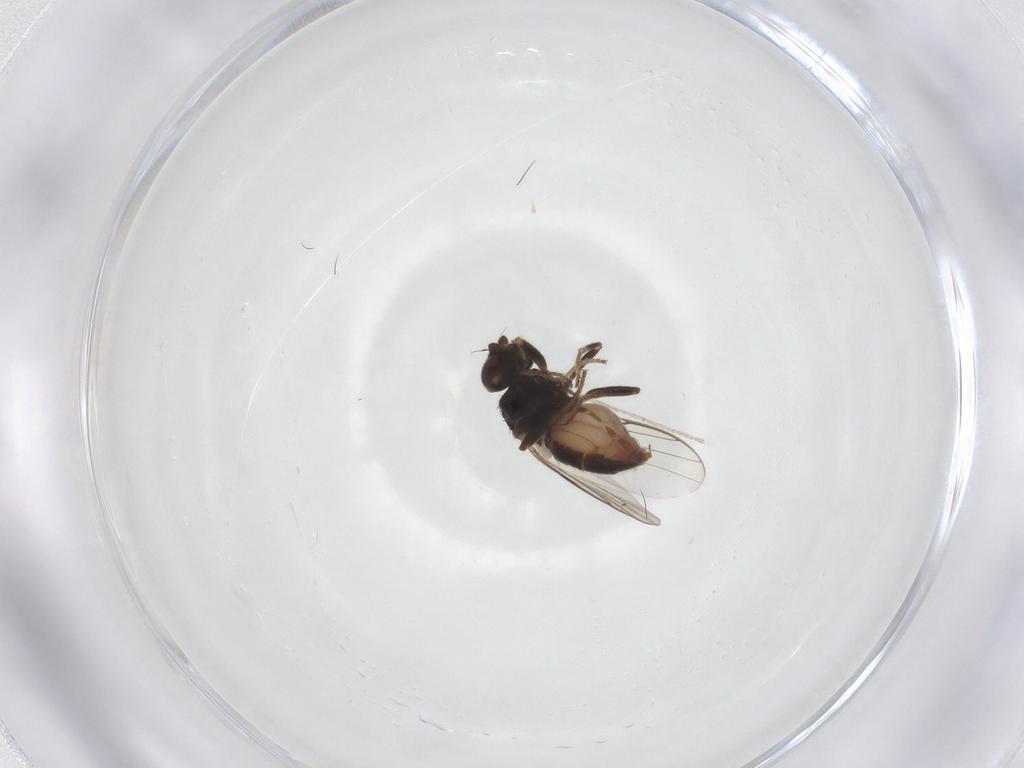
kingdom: Animalia
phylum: Arthropoda
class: Insecta
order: Diptera
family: Chloropidae
